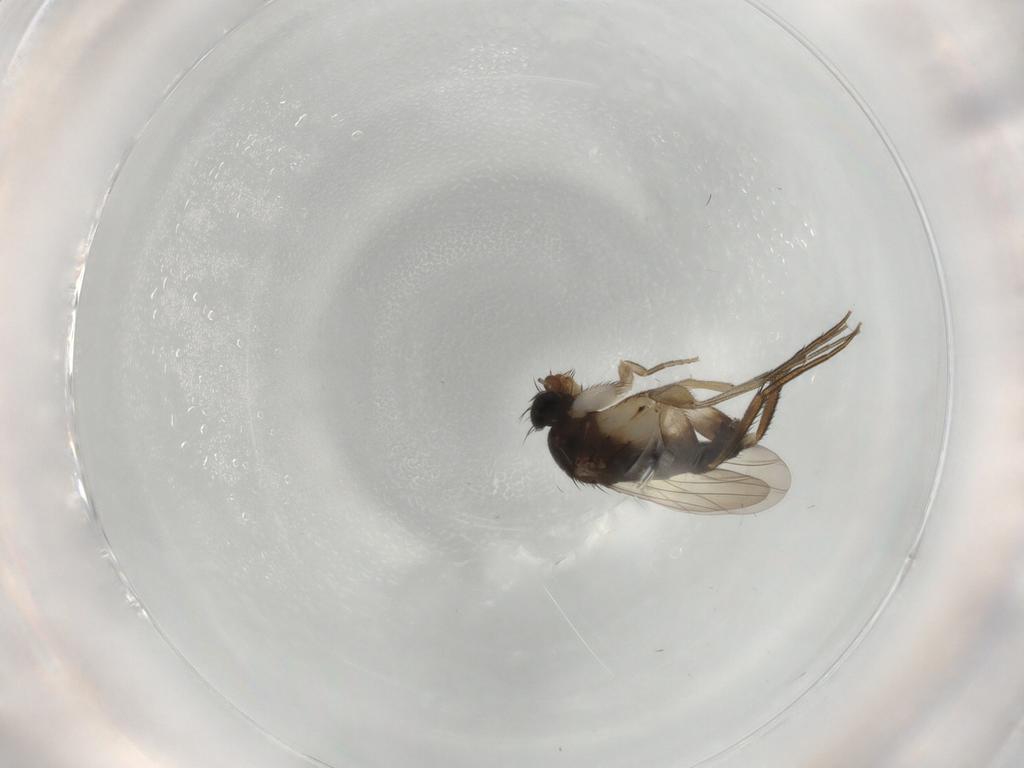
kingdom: Animalia
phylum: Arthropoda
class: Insecta
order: Diptera
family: Phoridae
